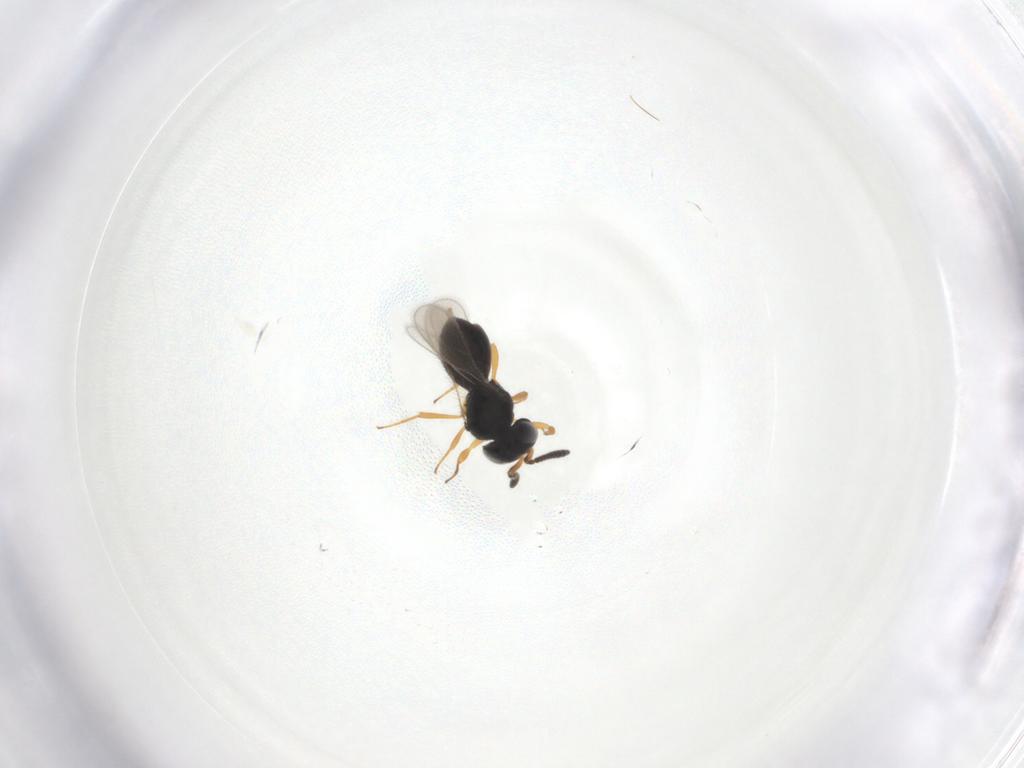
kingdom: Animalia
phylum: Arthropoda
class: Insecta
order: Hymenoptera
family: Scelionidae
